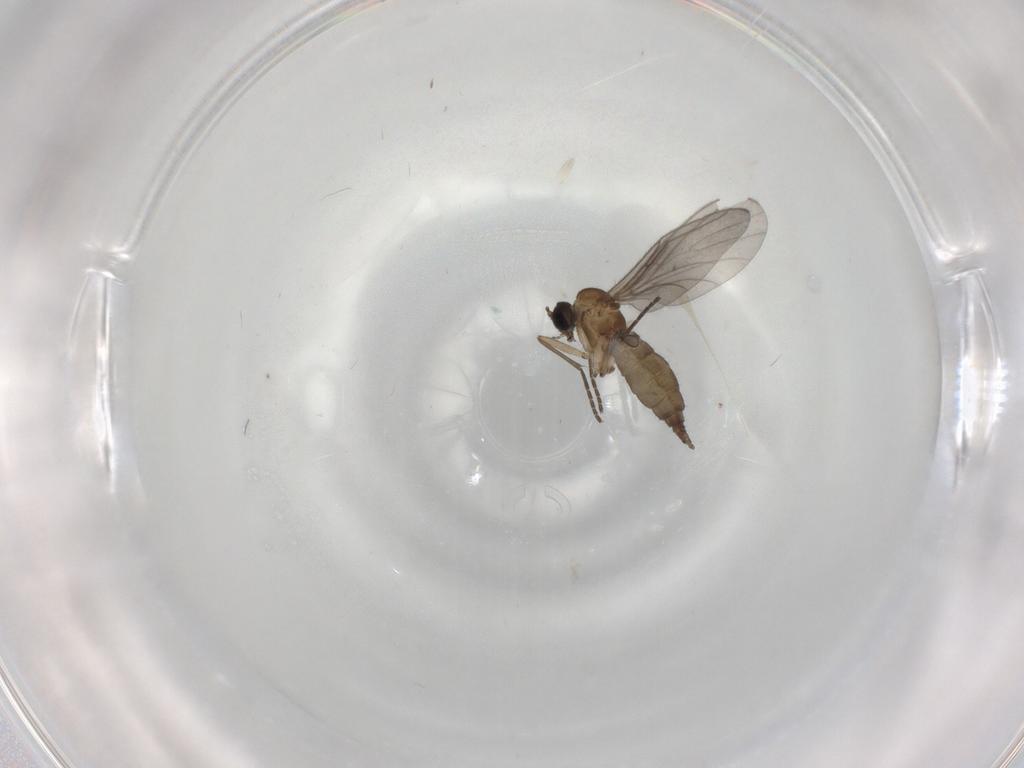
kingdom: Animalia
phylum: Arthropoda
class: Insecta
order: Diptera
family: Sciaridae
